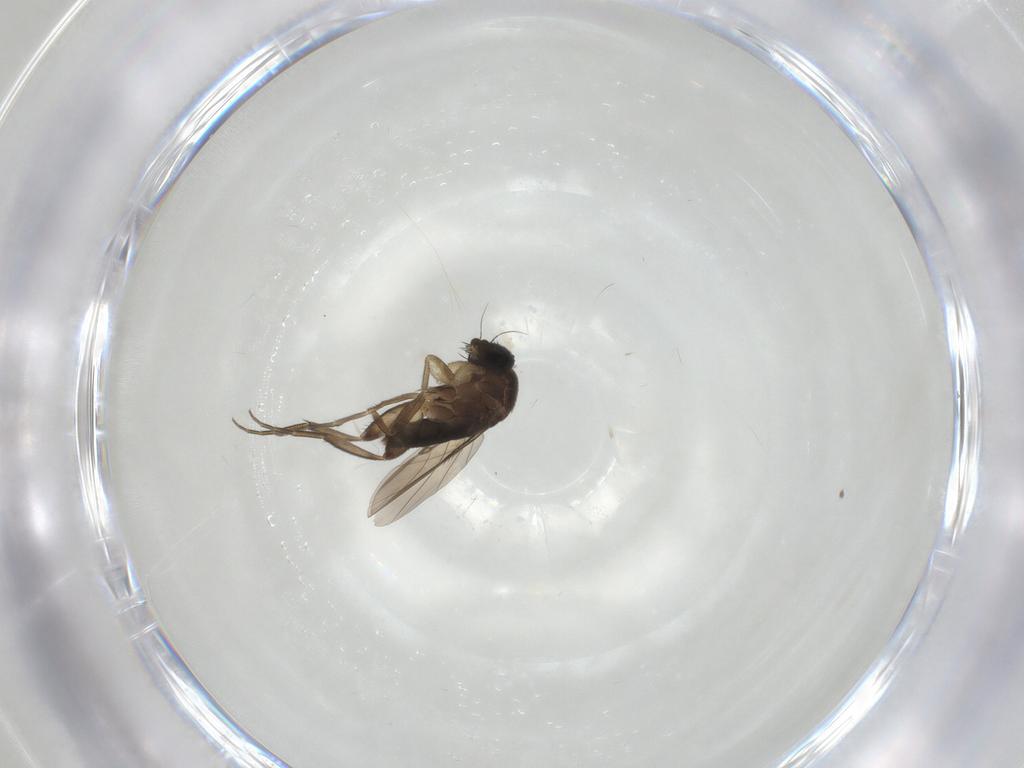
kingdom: Animalia
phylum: Arthropoda
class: Insecta
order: Diptera
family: Phoridae
